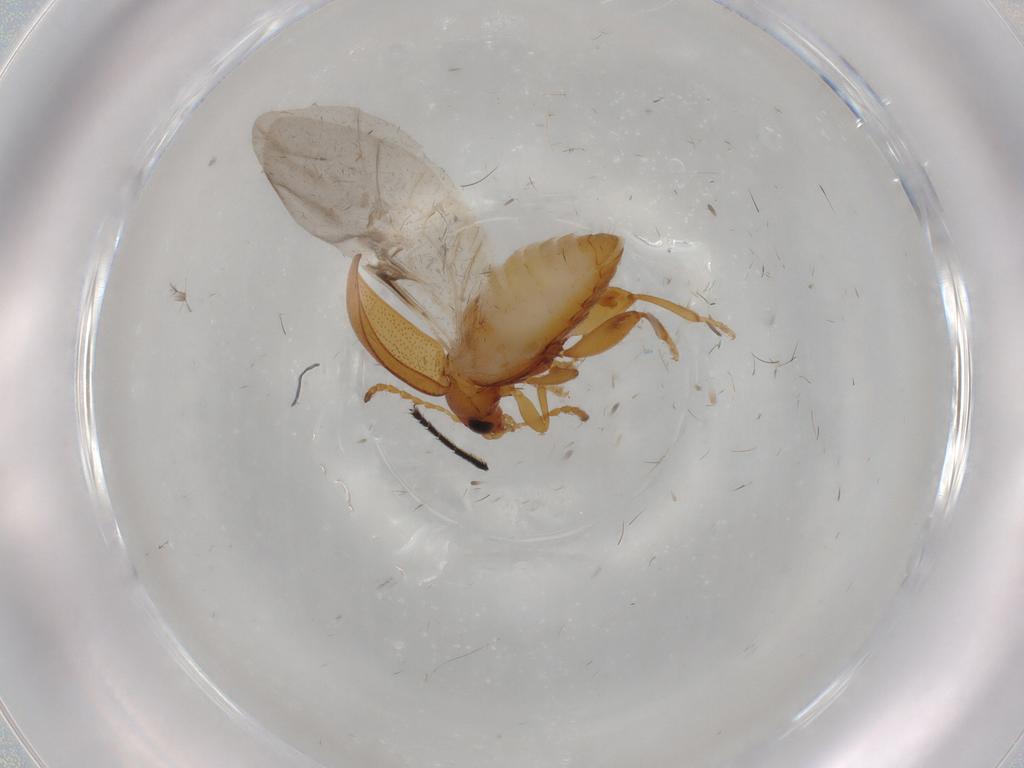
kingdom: Animalia
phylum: Arthropoda
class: Insecta
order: Coleoptera
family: Chrysomelidae
